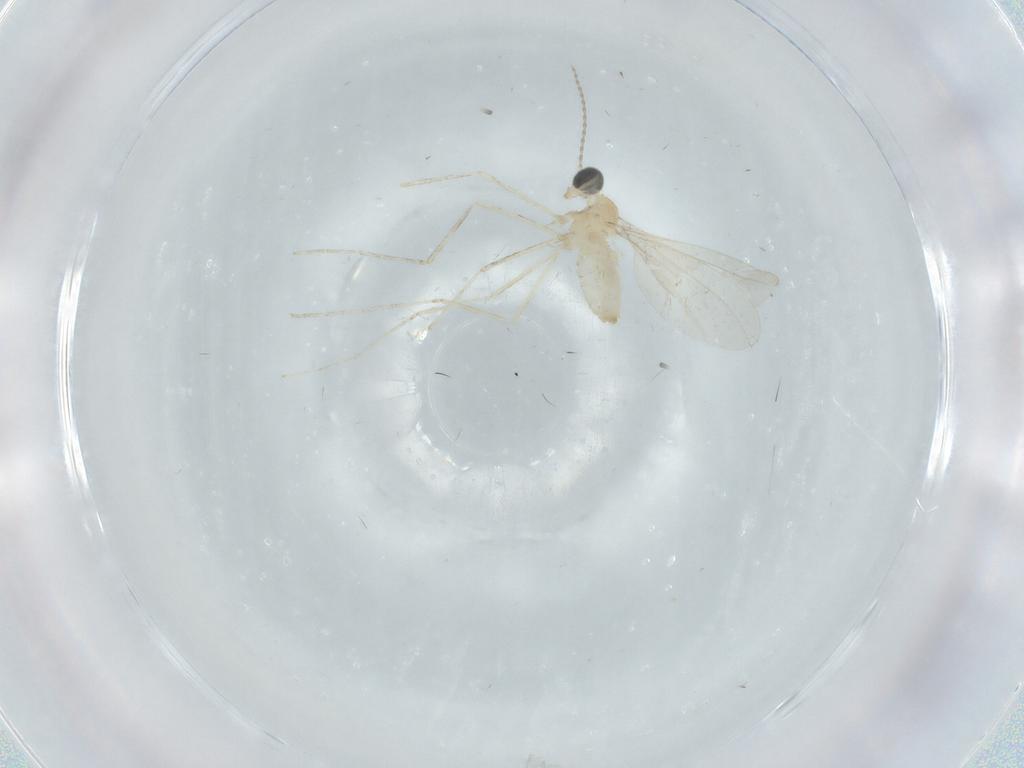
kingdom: Animalia
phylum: Arthropoda
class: Insecta
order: Diptera
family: Cecidomyiidae
